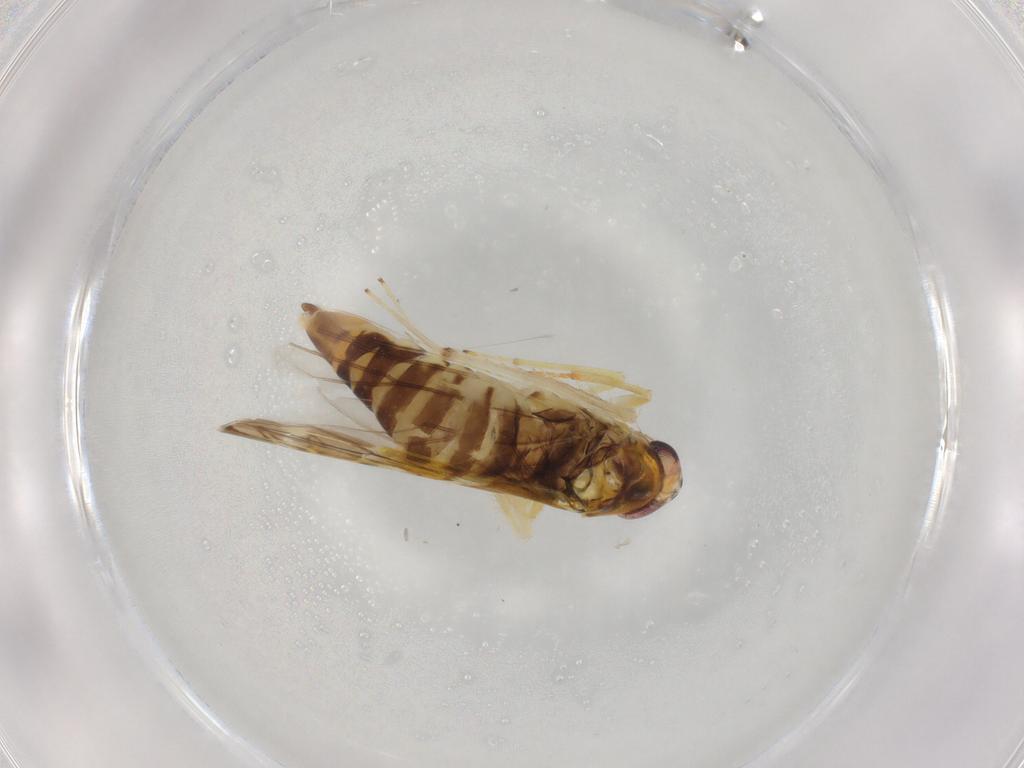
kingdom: Animalia
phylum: Arthropoda
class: Insecta
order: Hemiptera
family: Cicadellidae
